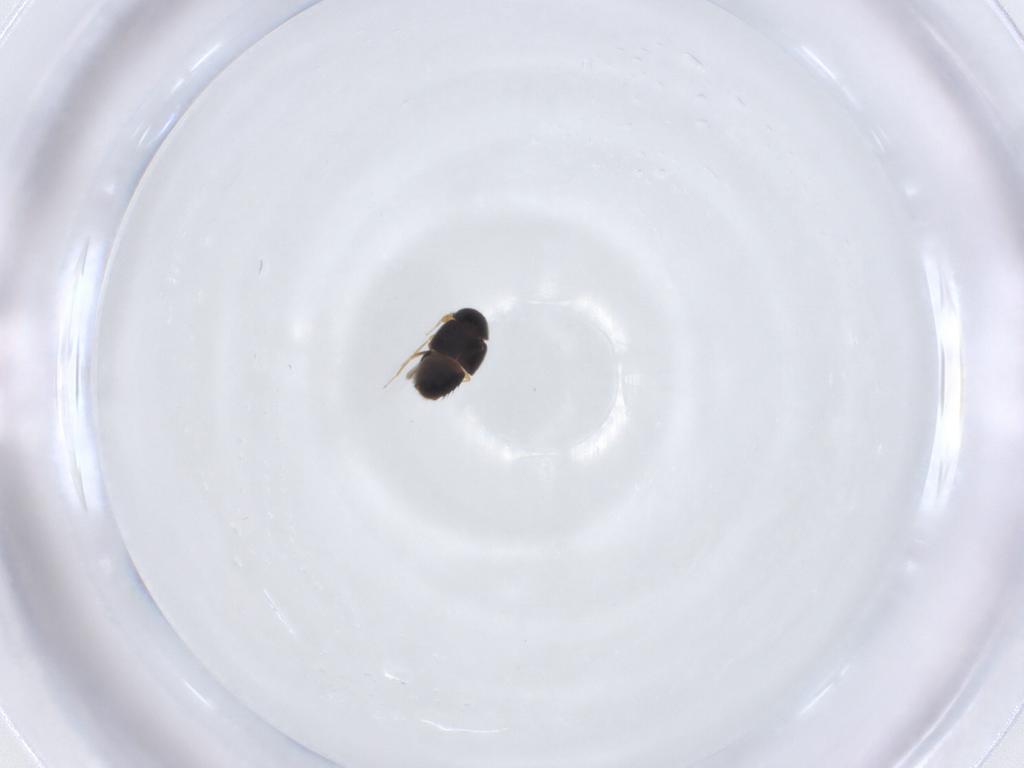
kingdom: Animalia
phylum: Arthropoda
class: Insecta
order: Coleoptera
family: Staphylinidae
